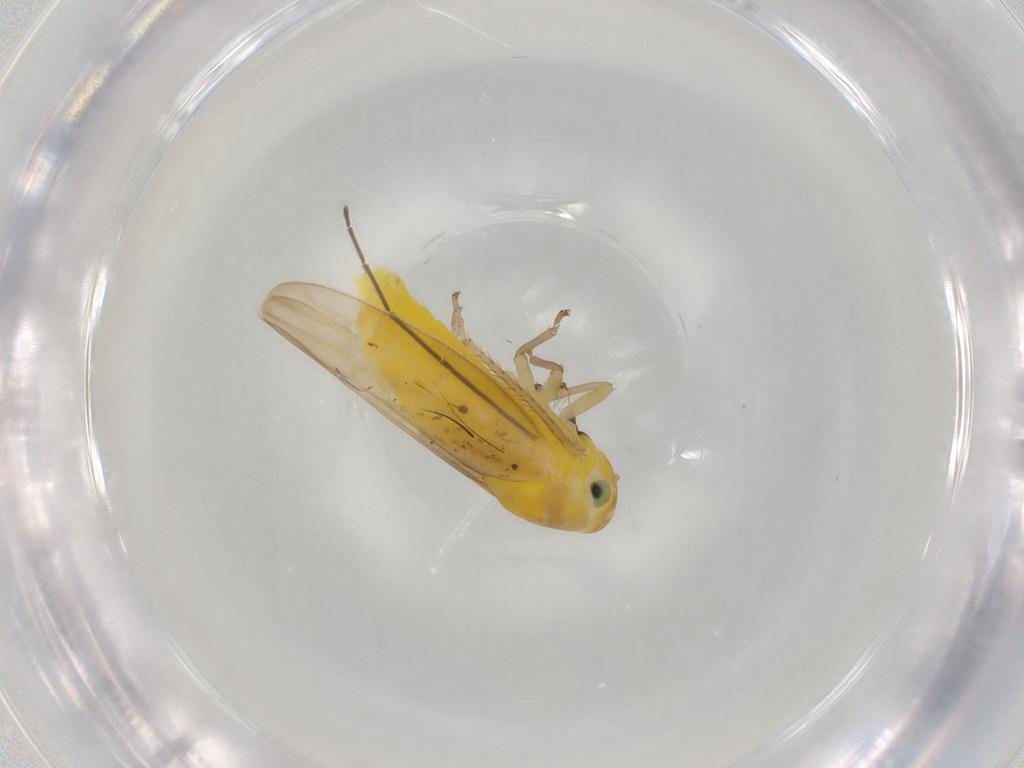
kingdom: Animalia
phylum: Arthropoda
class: Insecta
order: Hemiptera
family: Cicadellidae
